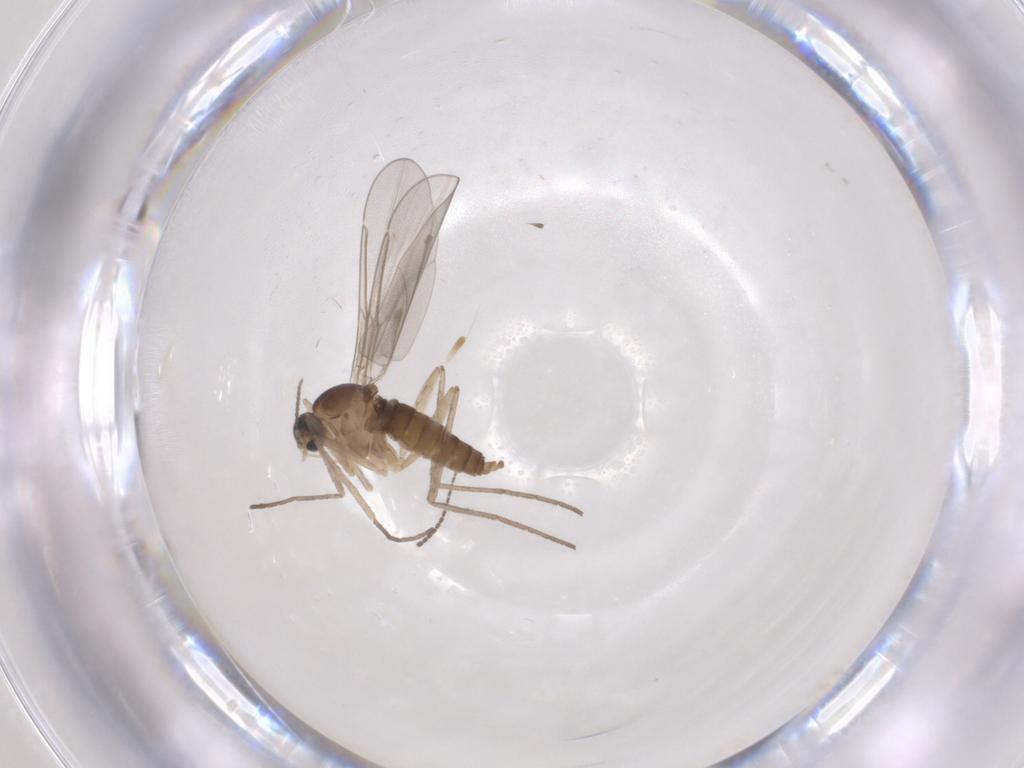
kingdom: Animalia
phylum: Arthropoda
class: Insecta
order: Diptera
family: Cecidomyiidae
